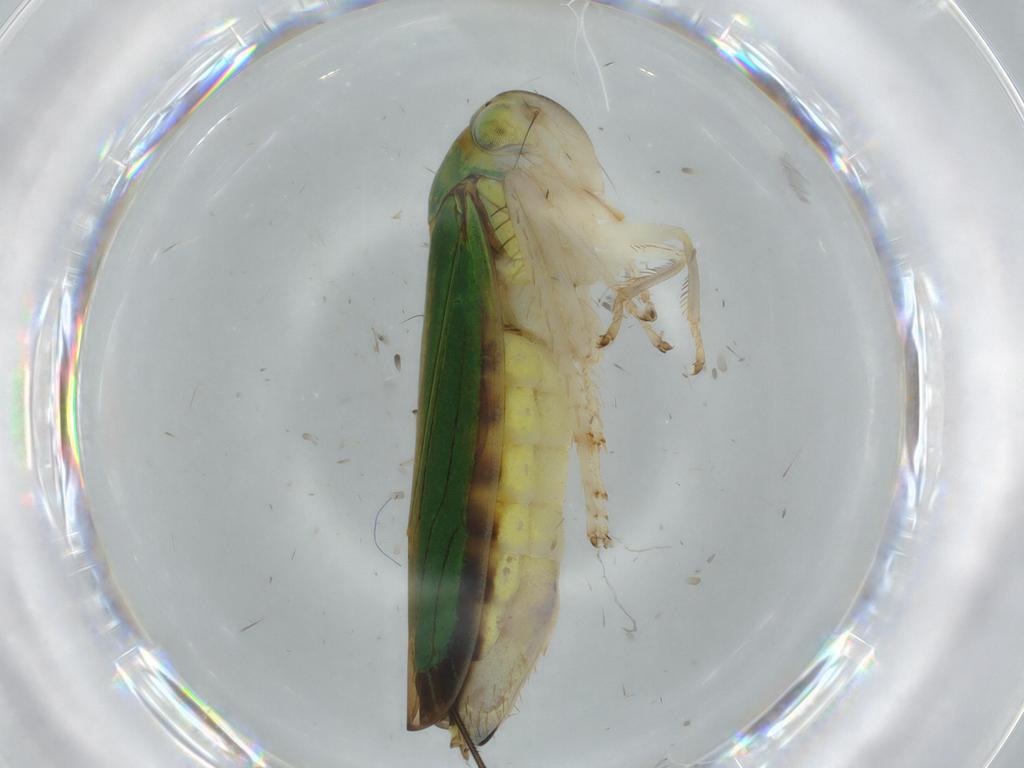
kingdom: Animalia
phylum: Arthropoda
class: Insecta
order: Hemiptera
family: Cicadellidae
